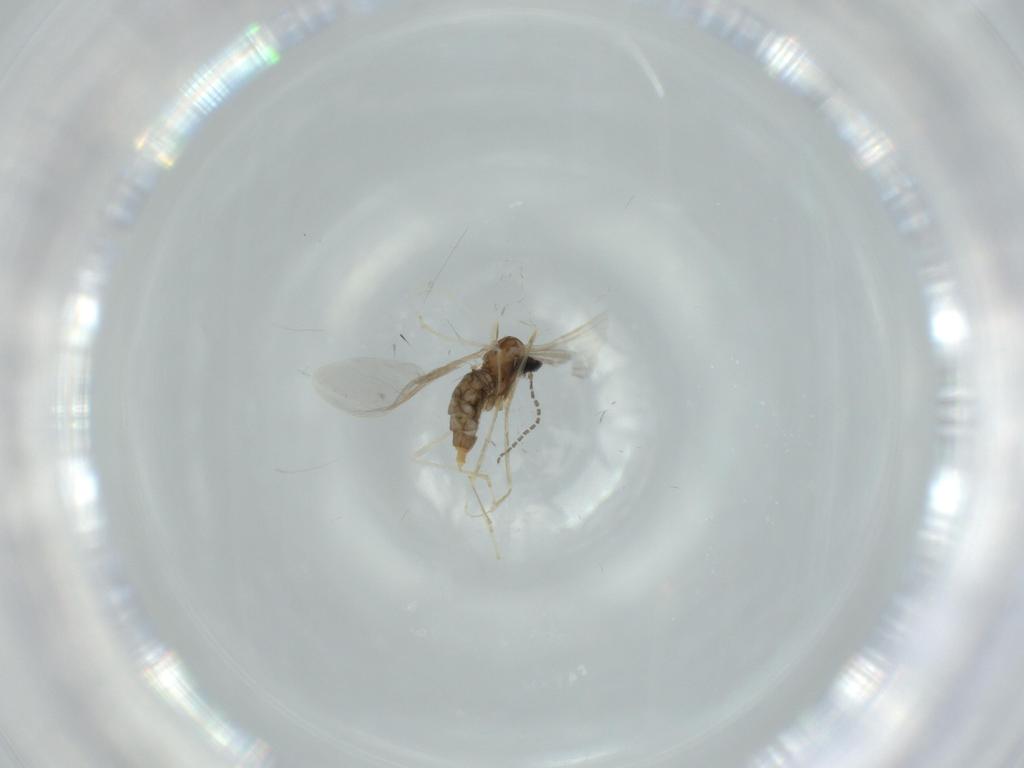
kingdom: Animalia
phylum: Arthropoda
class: Insecta
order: Diptera
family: Cecidomyiidae
